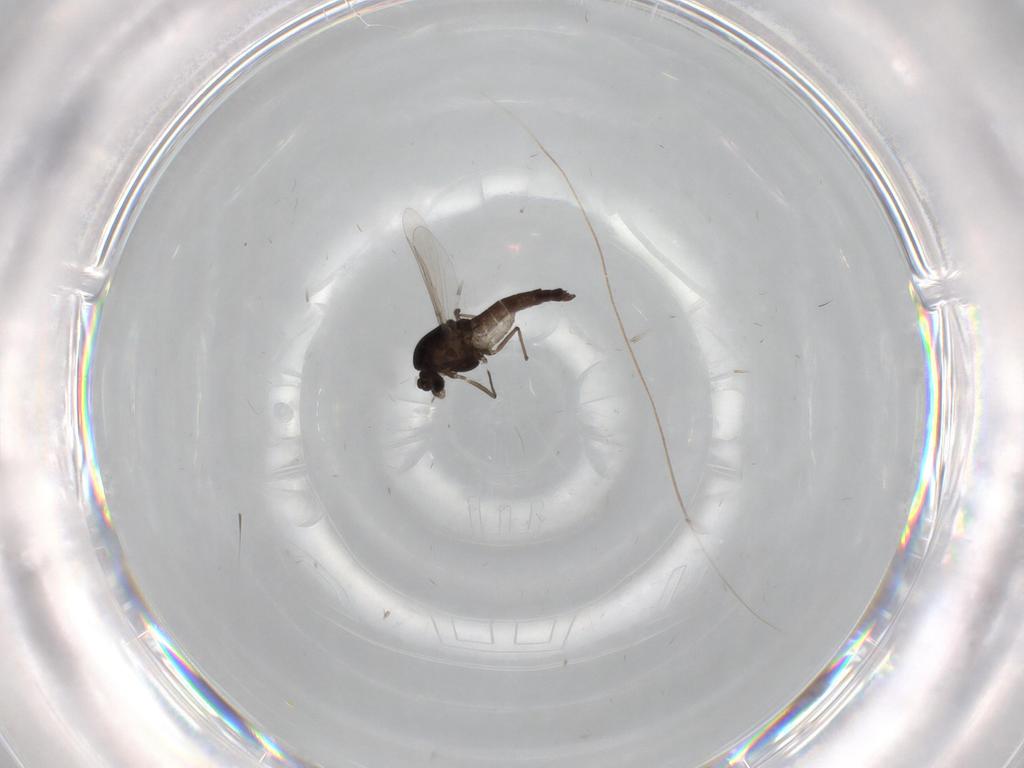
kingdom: Animalia
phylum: Arthropoda
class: Insecta
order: Diptera
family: Chironomidae
